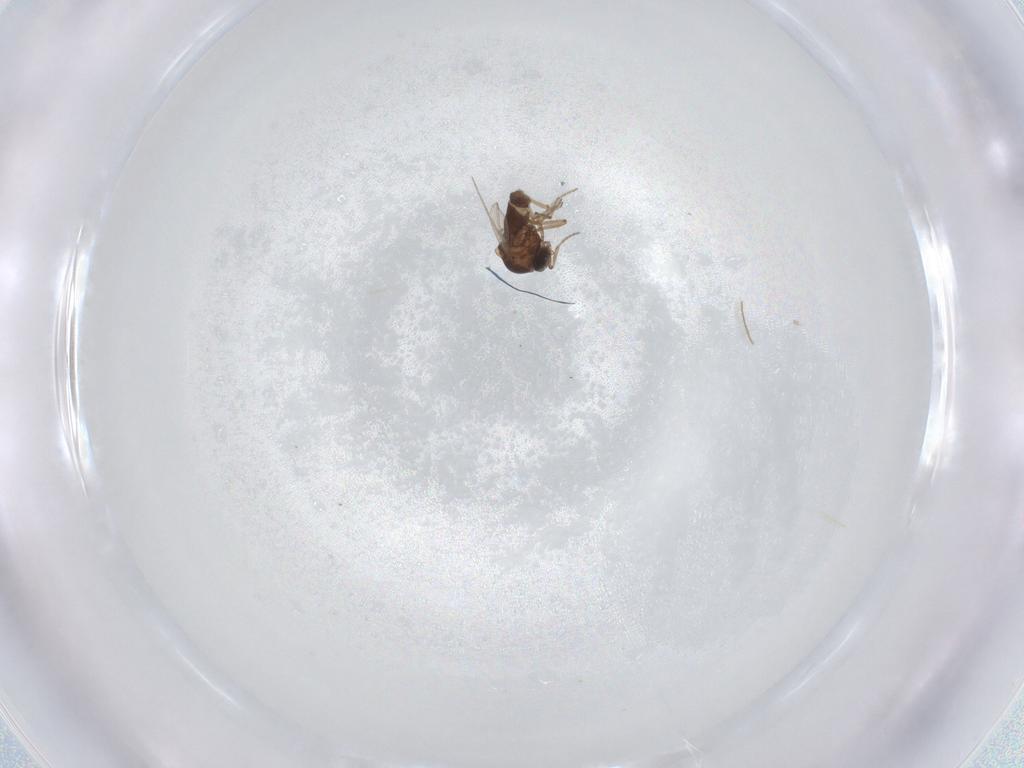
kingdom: Animalia
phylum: Arthropoda
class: Insecta
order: Diptera
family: Ceratopogonidae
